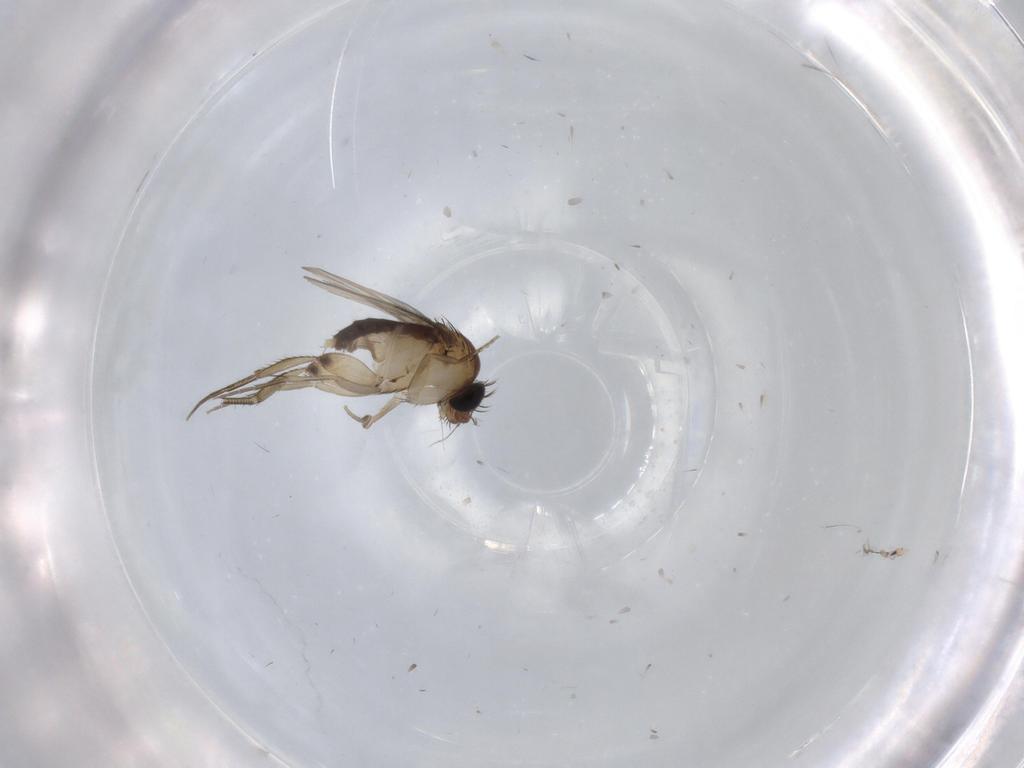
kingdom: Animalia
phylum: Arthropoda
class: Insecta
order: Diptera
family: Phoridae
